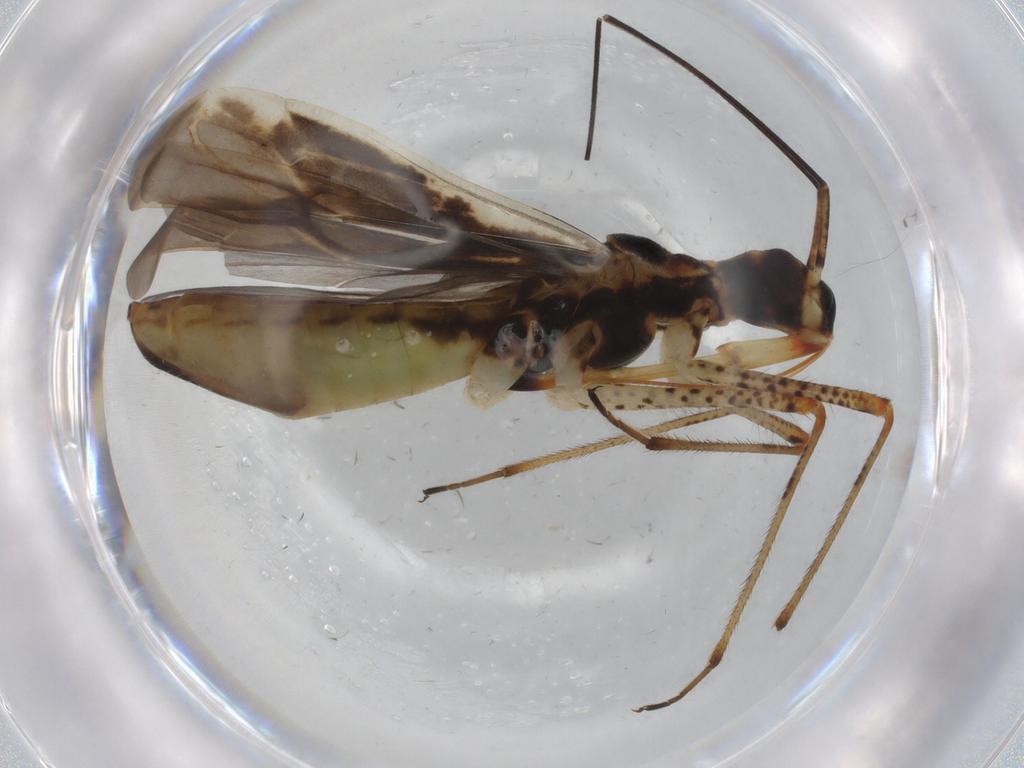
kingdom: Animalia
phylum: Arthropoda
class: Insecta
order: Hemiptera
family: Miridae
